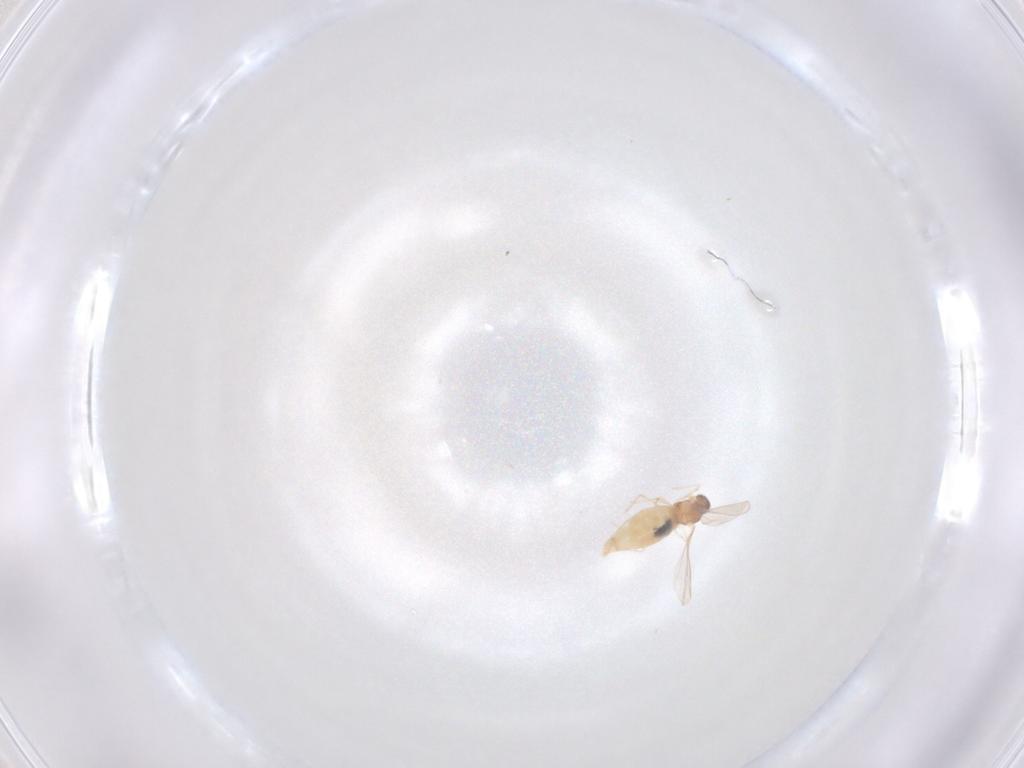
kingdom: Animalia
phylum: Arthropoda
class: Insecta
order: Diptera
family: Cecidomyiidae
